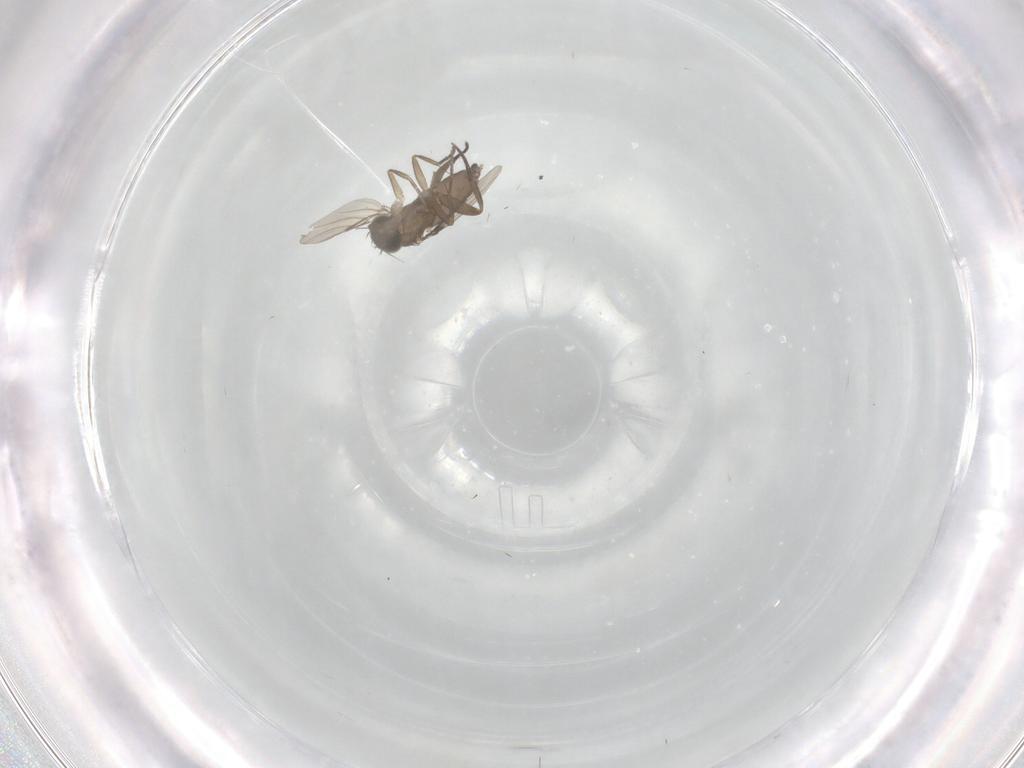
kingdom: Animalia
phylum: Arthropoda
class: Insecta
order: Diptera
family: Phoridae
